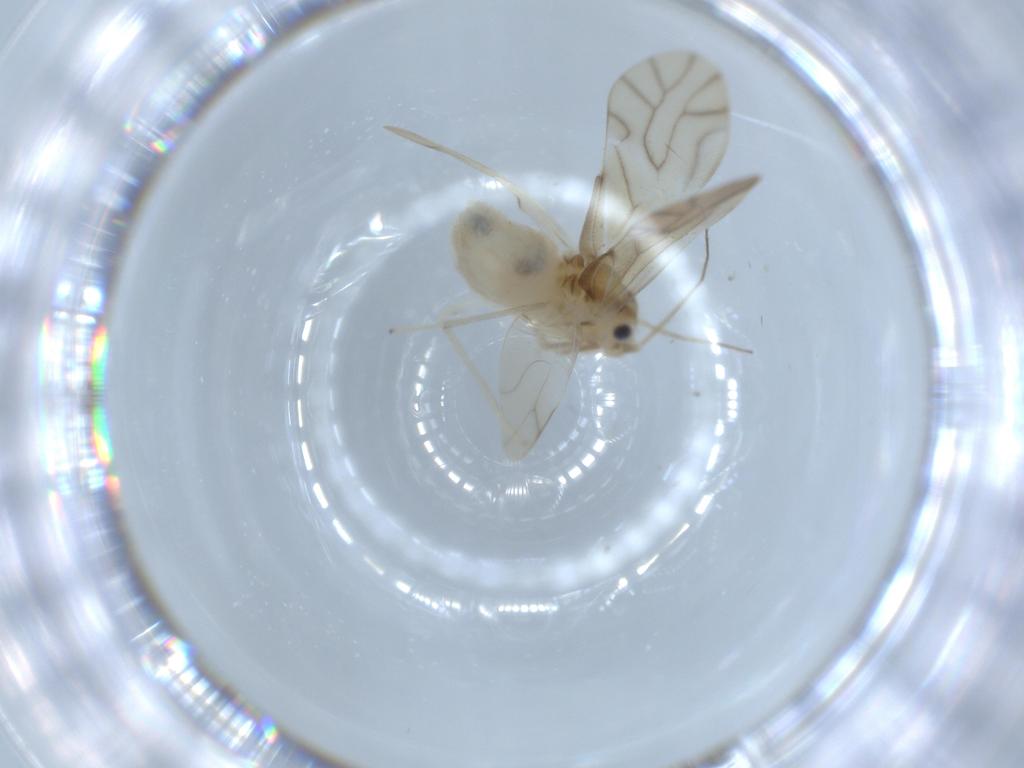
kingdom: Animalia
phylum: Arthropoda
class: Insecta
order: Psocodea
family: Caeciliusidae
